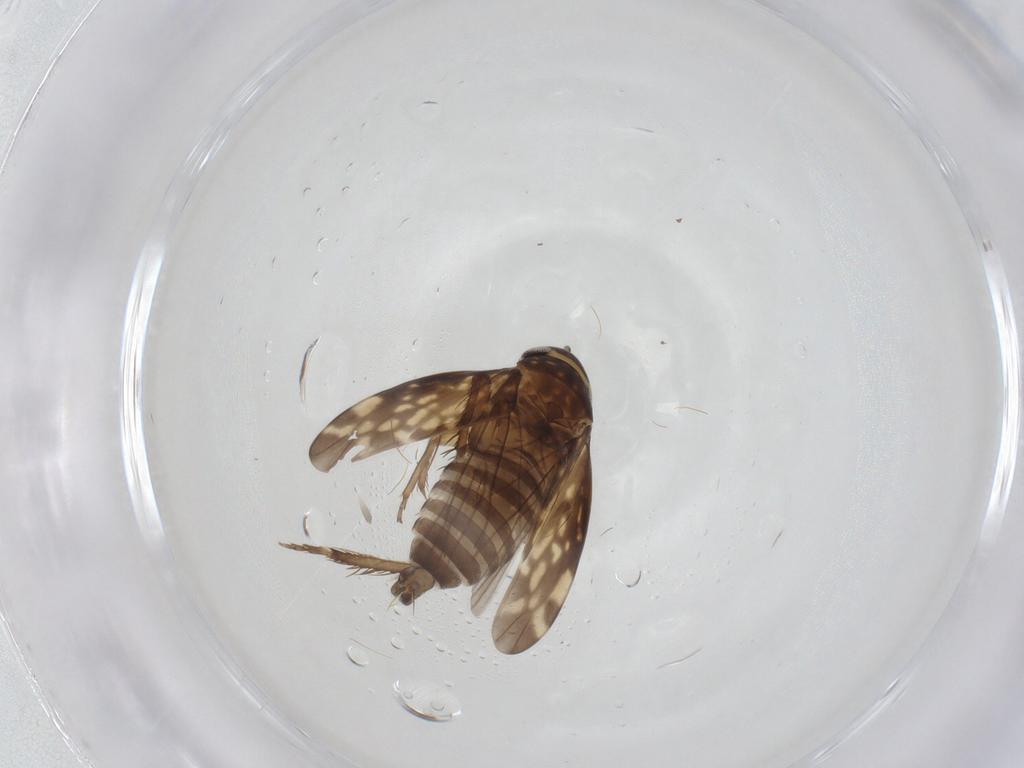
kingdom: Animalia
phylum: Arthropoda
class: Insecta
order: Hemiptera
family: Cicadellidae
